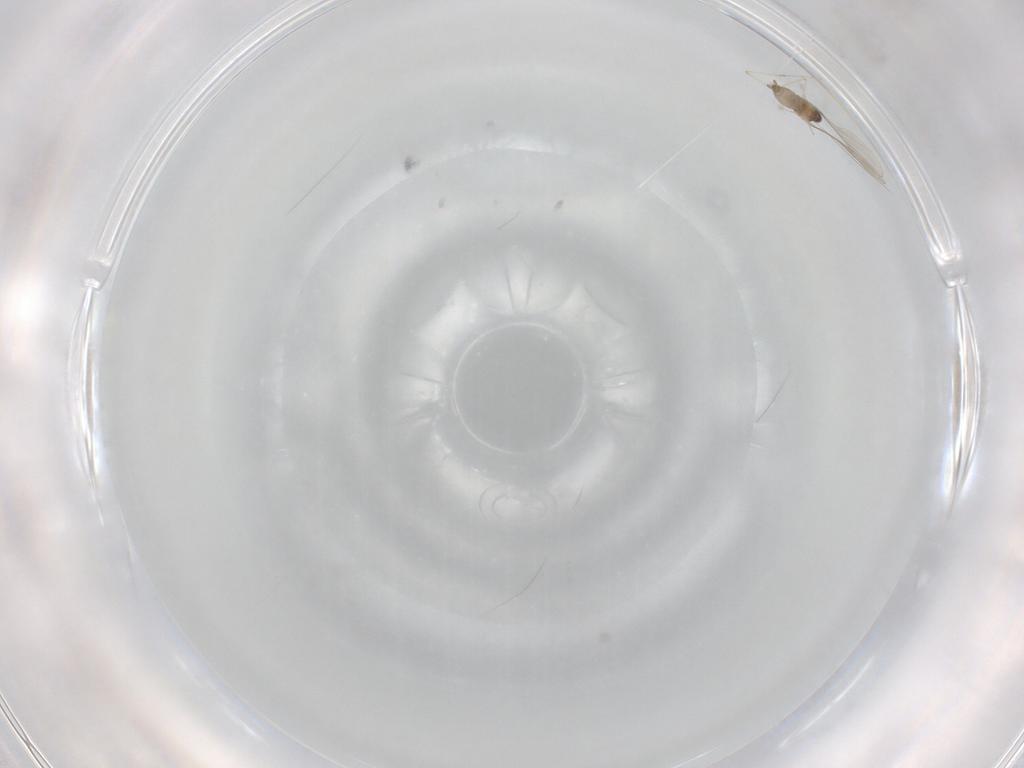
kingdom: Animalia
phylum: Arthropoda
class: Insecta
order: Diptera
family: Cecidomyiidae
